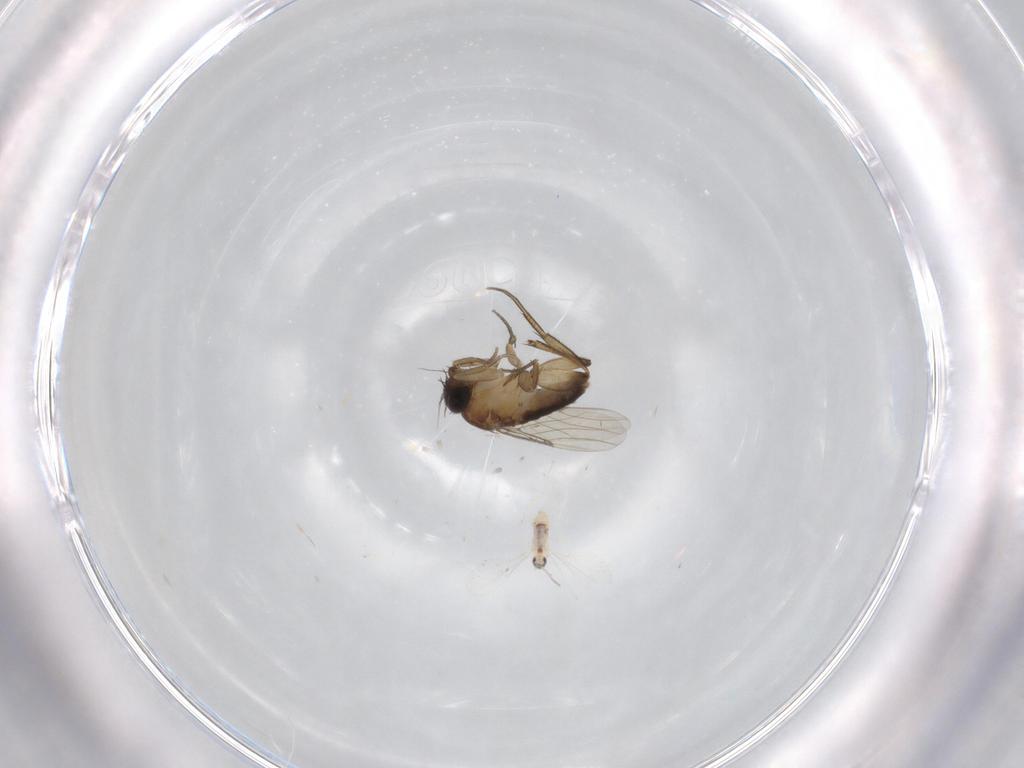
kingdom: Animalia
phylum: Arthropoda
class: Insecta
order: Diptera
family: Phoridae
